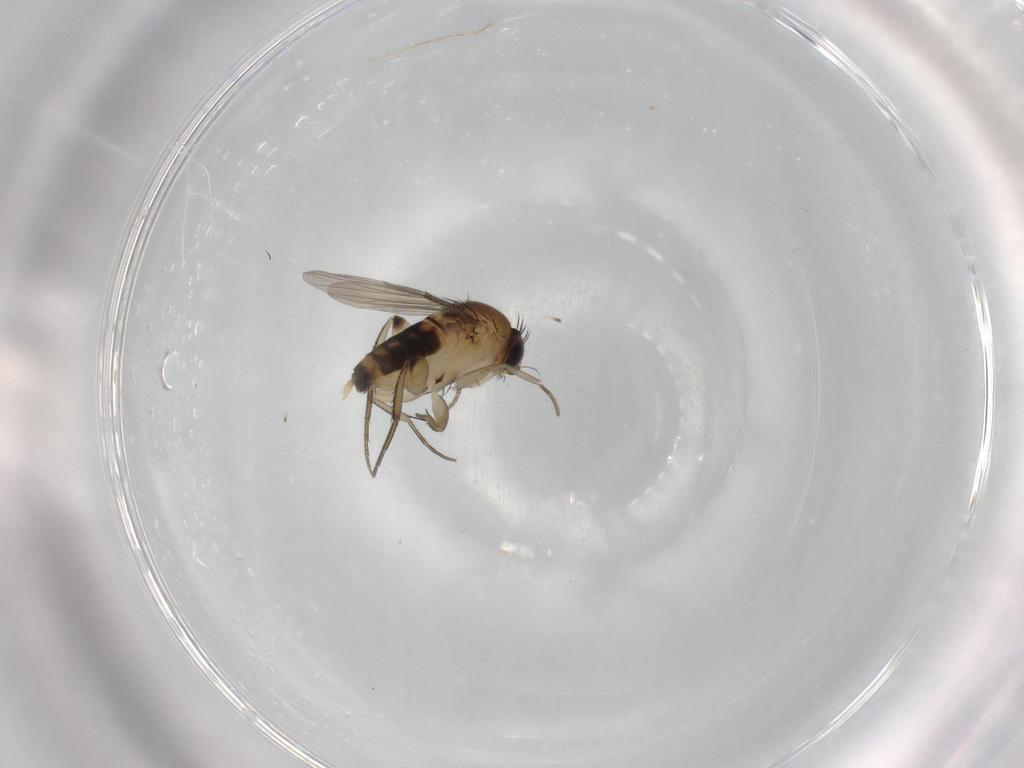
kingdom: Animalia
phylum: Arthropoda
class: Insecta
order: Diptera
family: Phoridae
